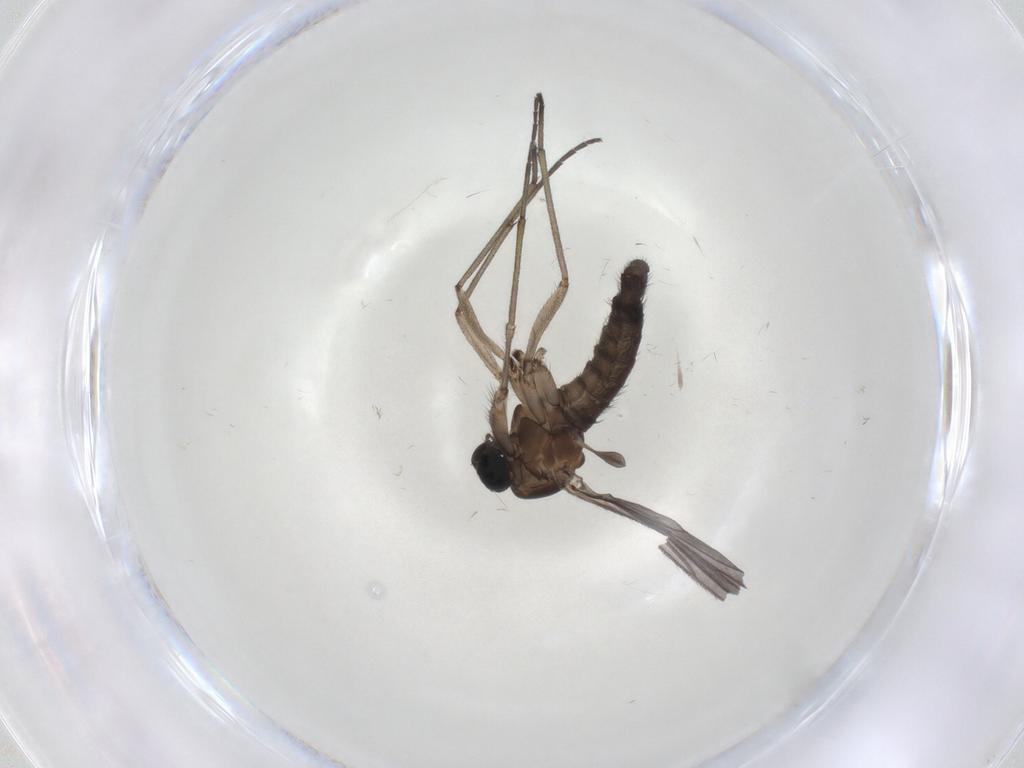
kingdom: Animalia
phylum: Arthropoda
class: Insecta
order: Diptera
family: Sciaridae
